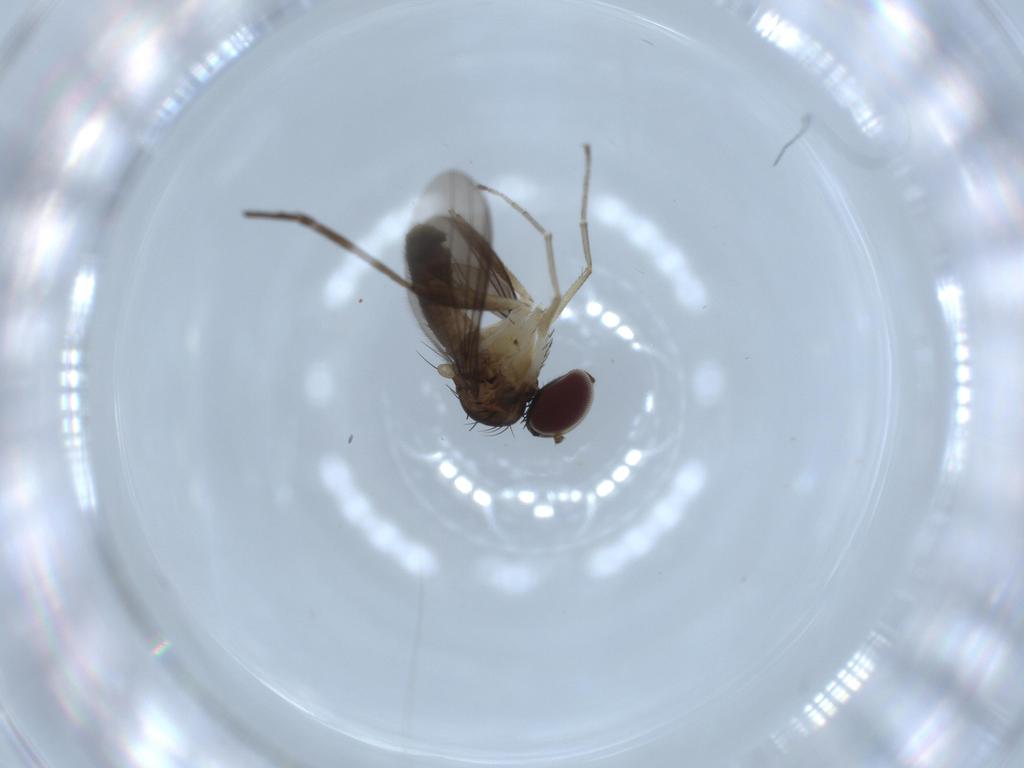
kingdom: Animalia
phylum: Arthropoda
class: Insecta
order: Diptera
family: Dolichopodidae
